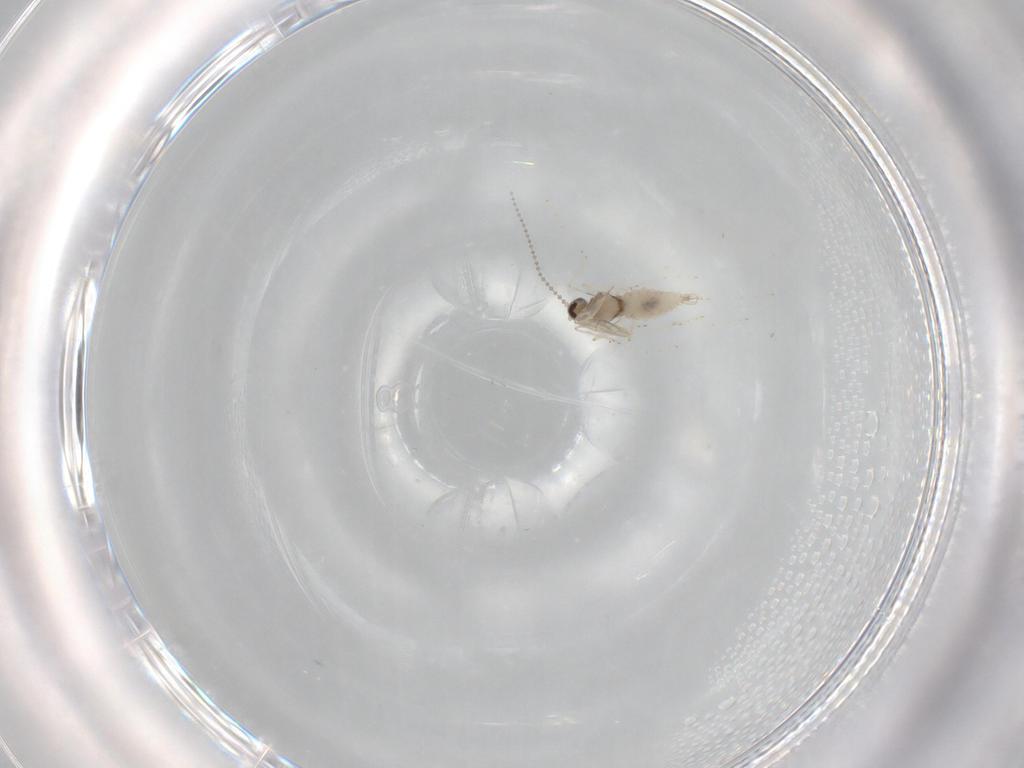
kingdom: Animalia
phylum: Arthropoda
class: Insecta
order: Diptera
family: Cecidomyiidae
